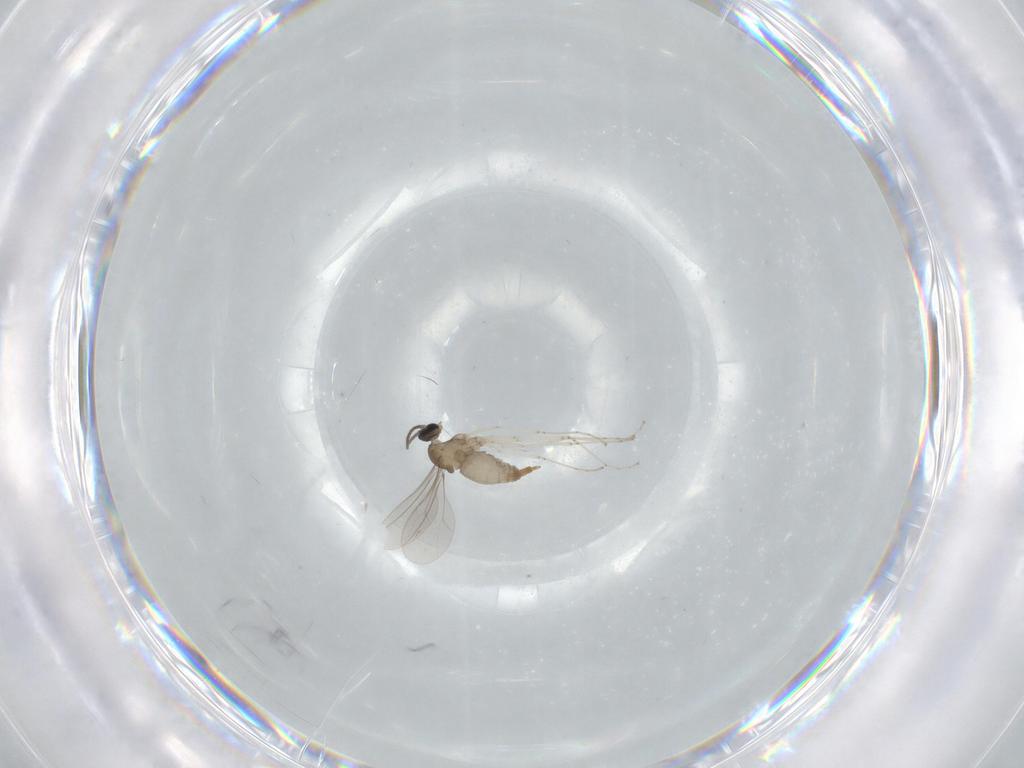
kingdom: Animalia
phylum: Arthropoda
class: Insecta
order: Diptera
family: Cecidomyiidae
